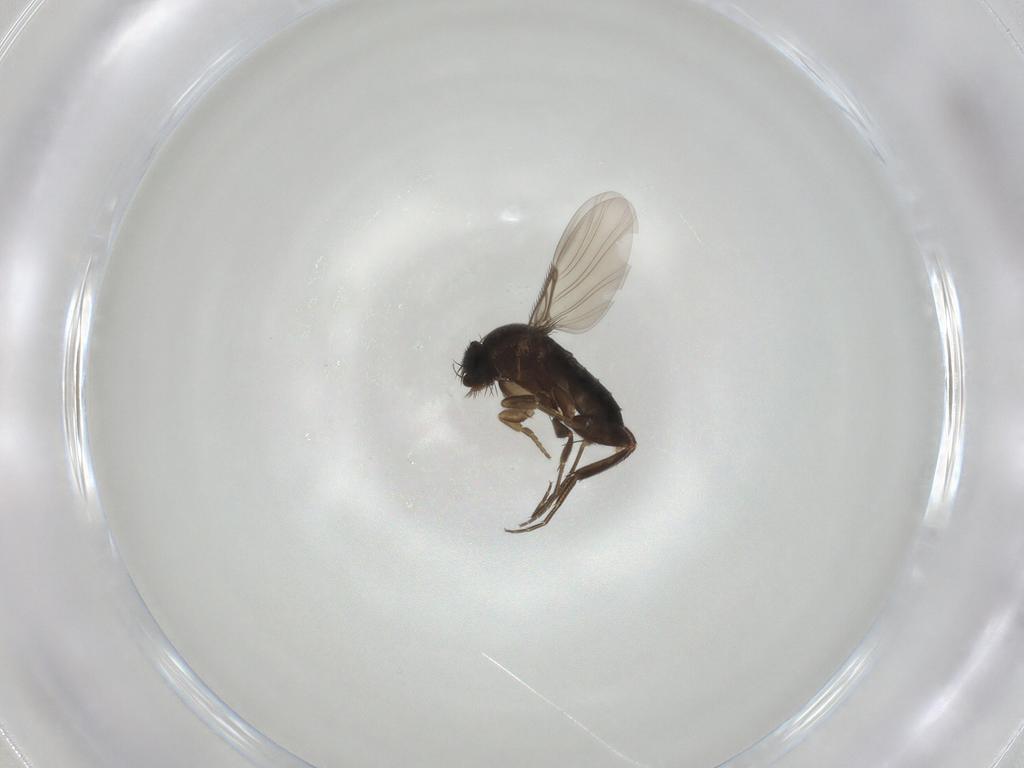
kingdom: Animalia
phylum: Arthropoda
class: Insecta
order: Diptera
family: Phoridae
